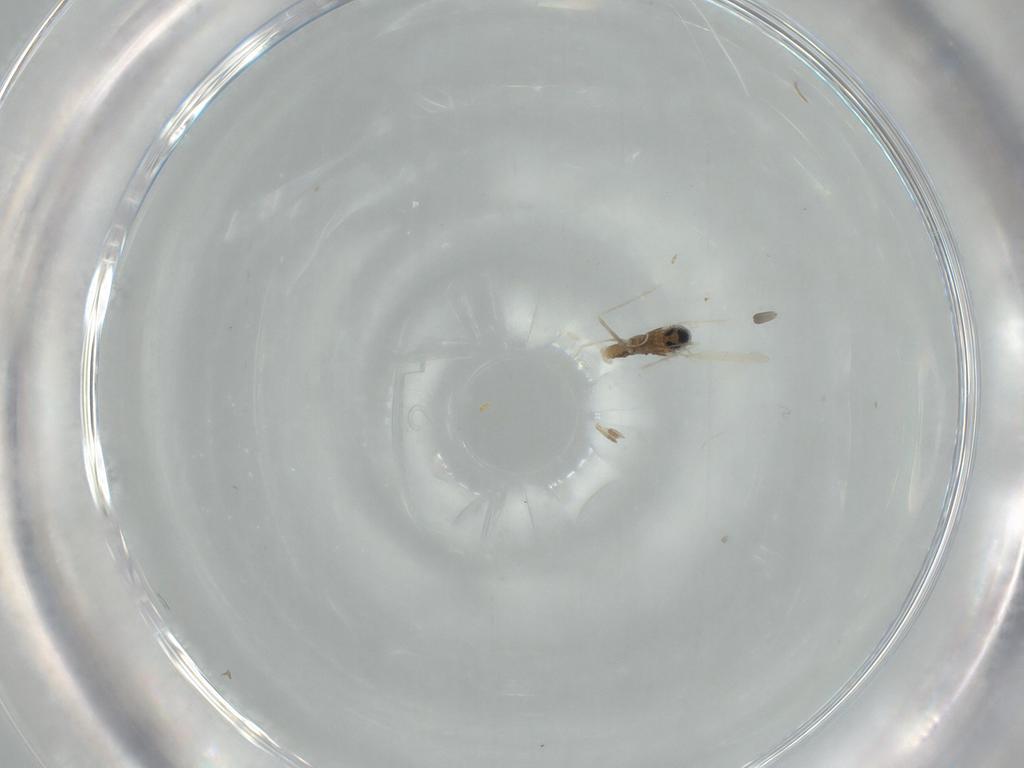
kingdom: Animalia
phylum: Arthropoda
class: Insecta
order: Diptera
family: Cecidomyiidae
